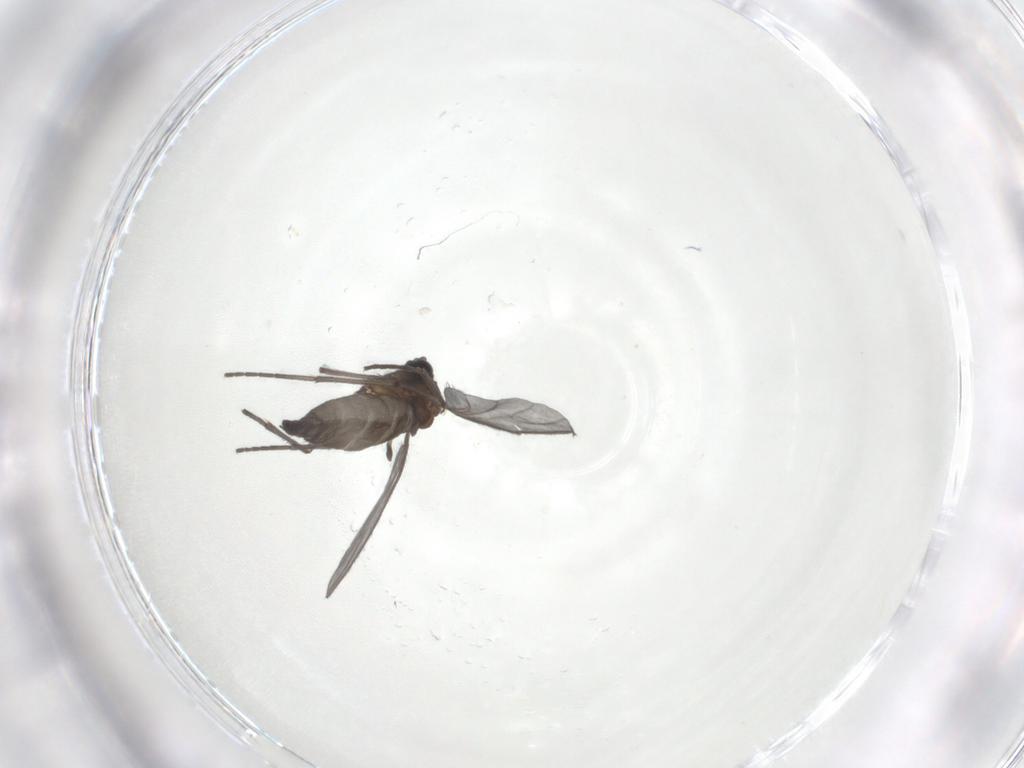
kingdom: Animalia
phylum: Arthropoda
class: Insecta
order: Diptera
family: Sciaridae
